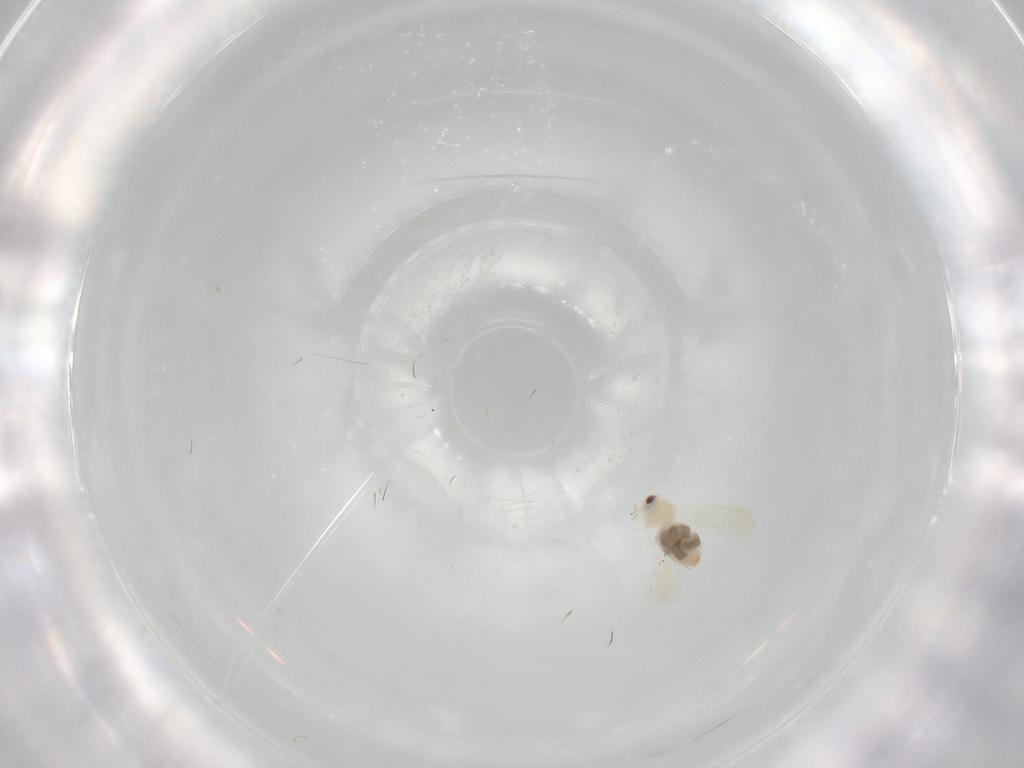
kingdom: Animalia
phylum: Arthropoda
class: Insecta
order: Hemiptera
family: Aleyrodidae
